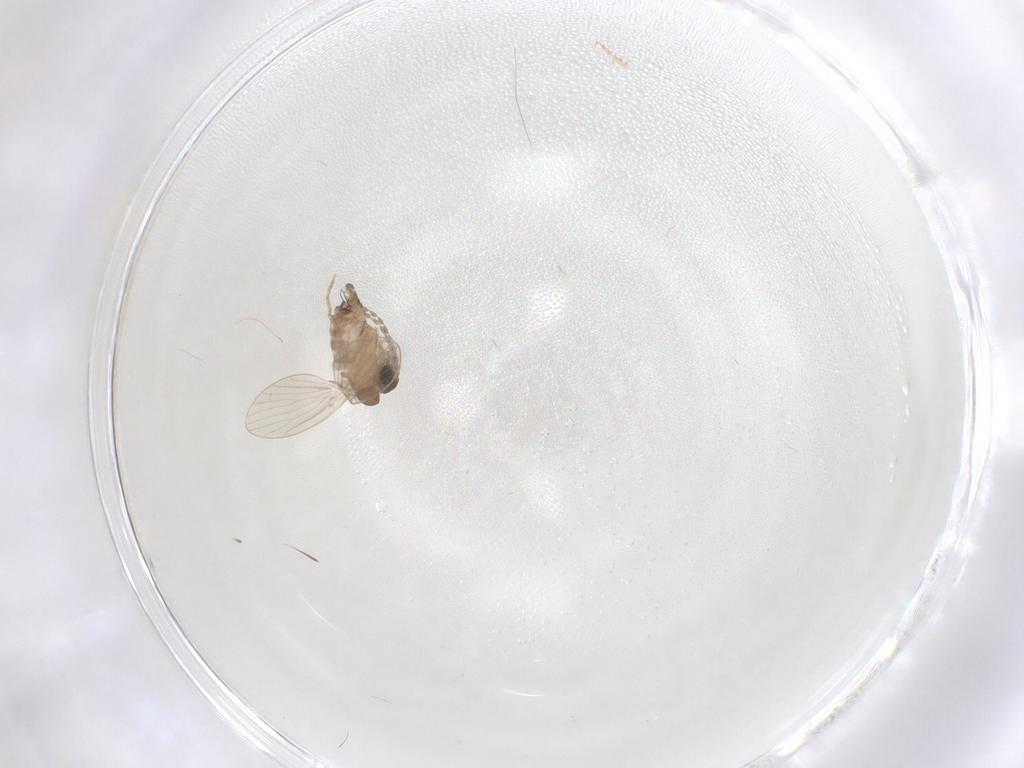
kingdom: Animalia
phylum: Arthropoda
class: Insecta
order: Diptera
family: Psychodidae
